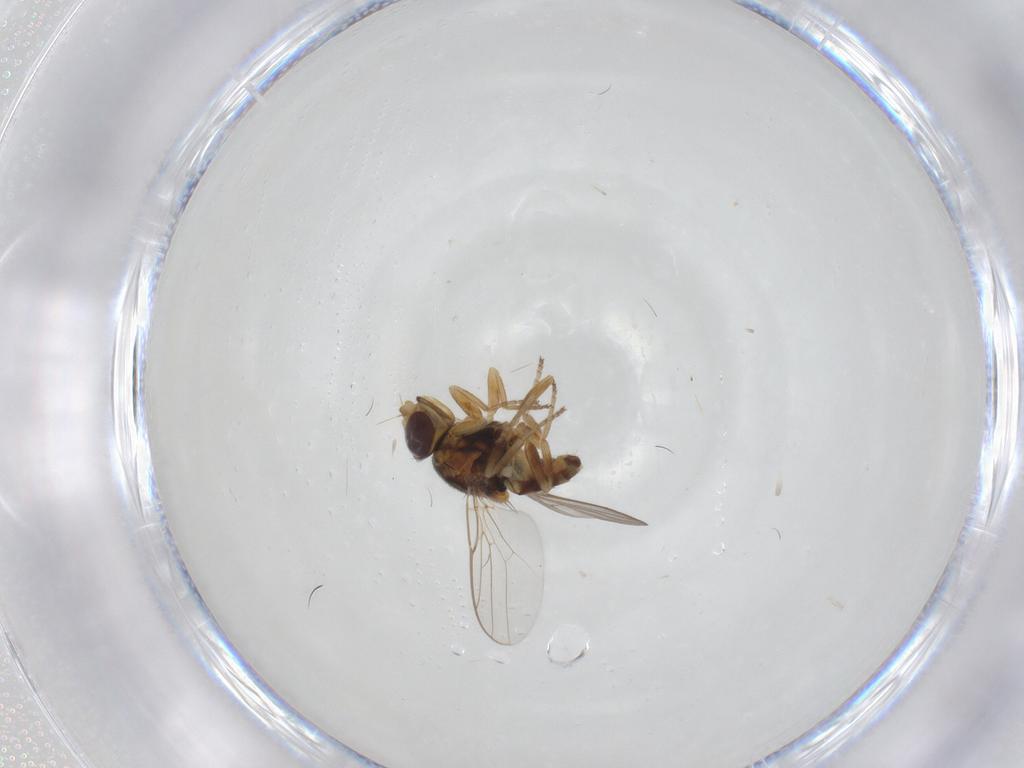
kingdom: Animalia
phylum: Arthropoda
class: Insecta
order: Diptera
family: Chloropidae
